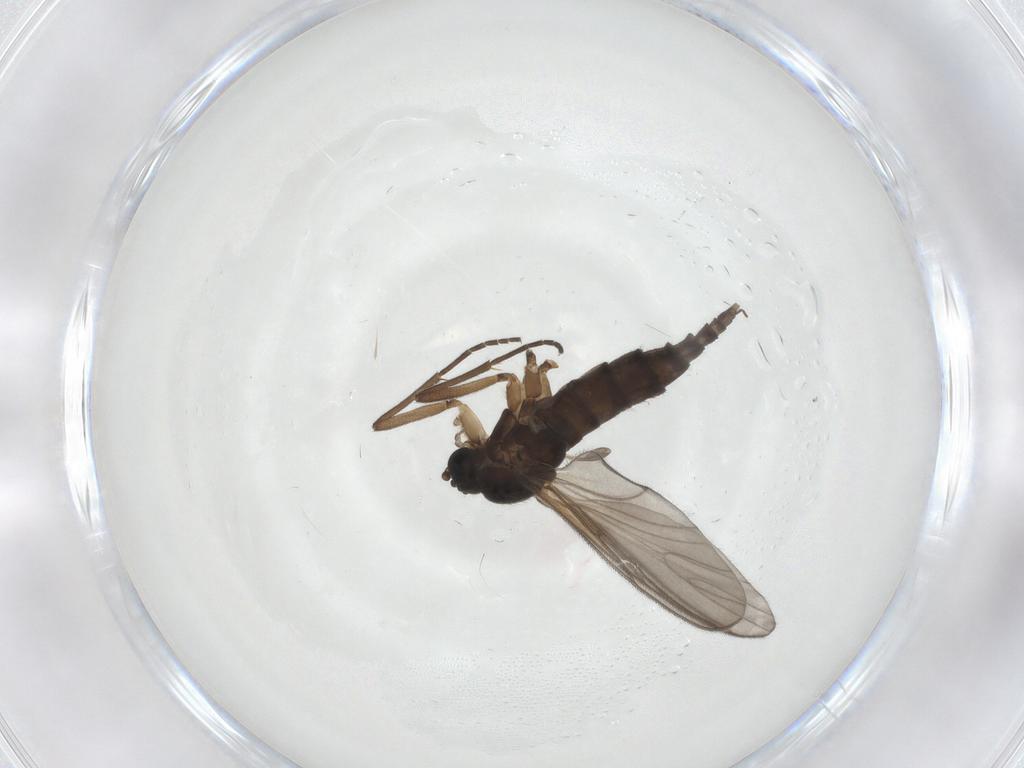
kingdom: Animalia
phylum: Arthropoda
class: Insecta
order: Diptera
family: Sciaridae
